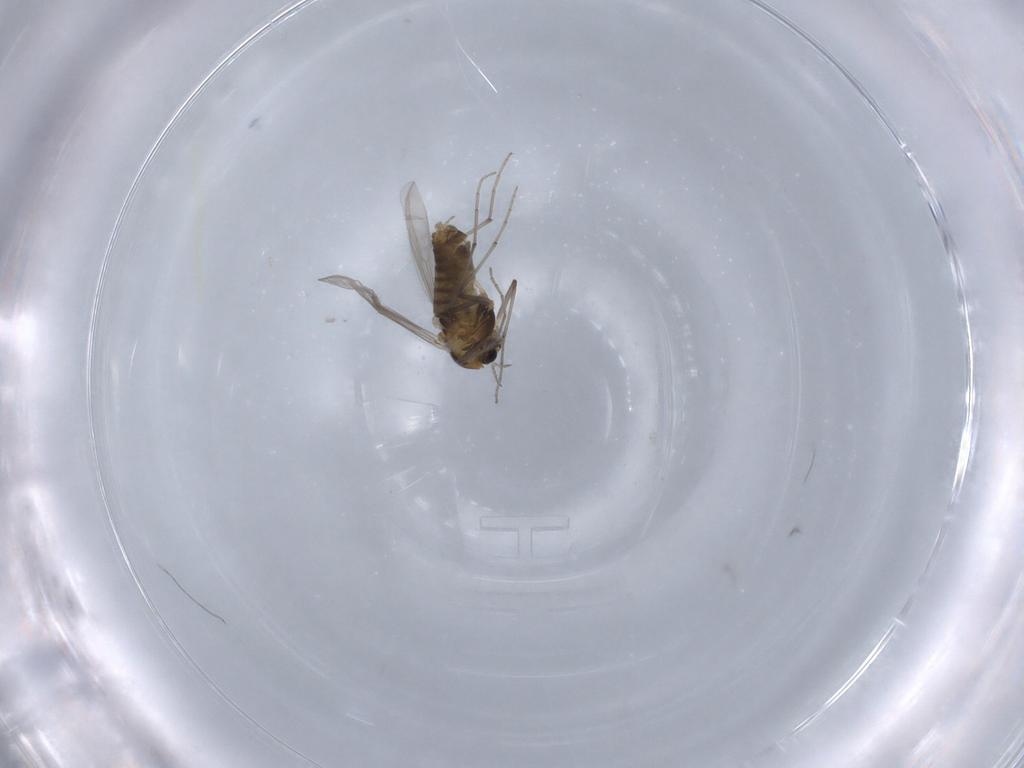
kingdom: Animalia
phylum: Arthropoda
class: Insecta
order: Diptera
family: Chironomidae
